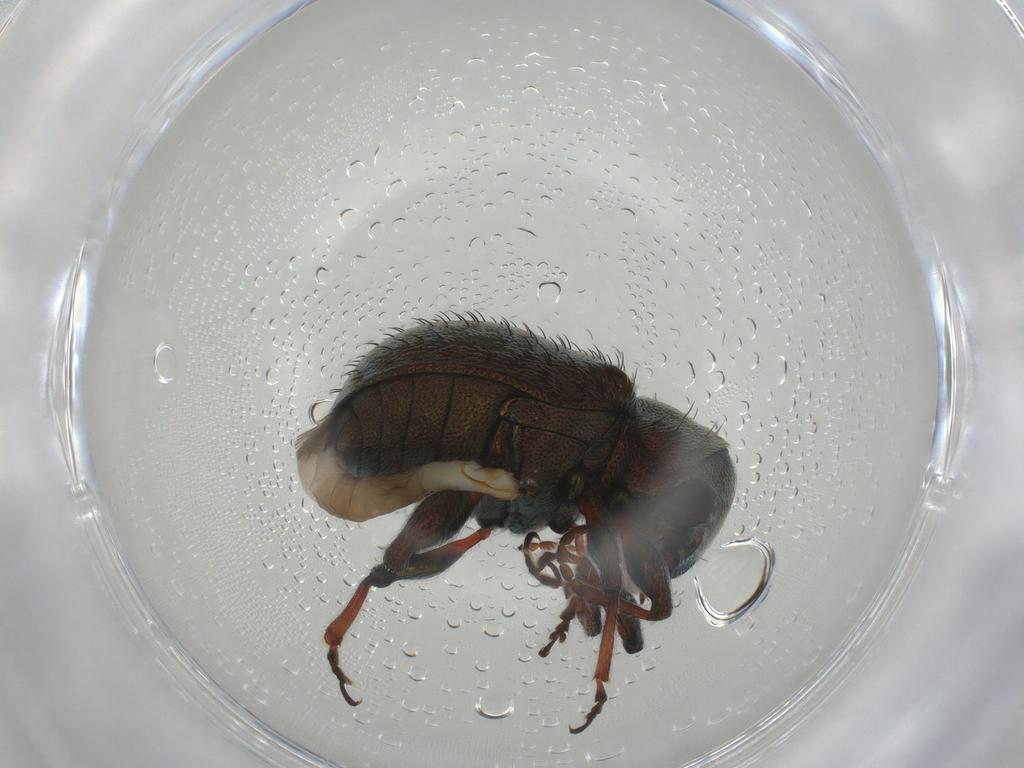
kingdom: Animalia
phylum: Arthropoda
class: Insecta
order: Coleoptera
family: Chrysomelidae
